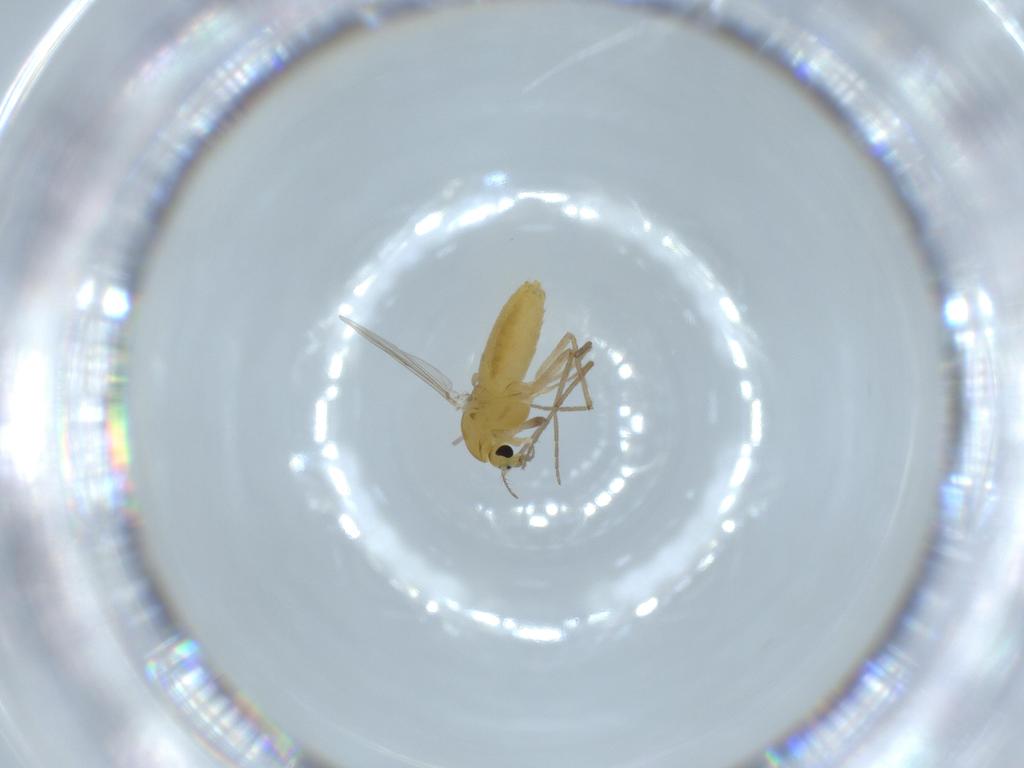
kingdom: Animalia
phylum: Arthropoda
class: Insecta
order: Diptera
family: Chironomidae
